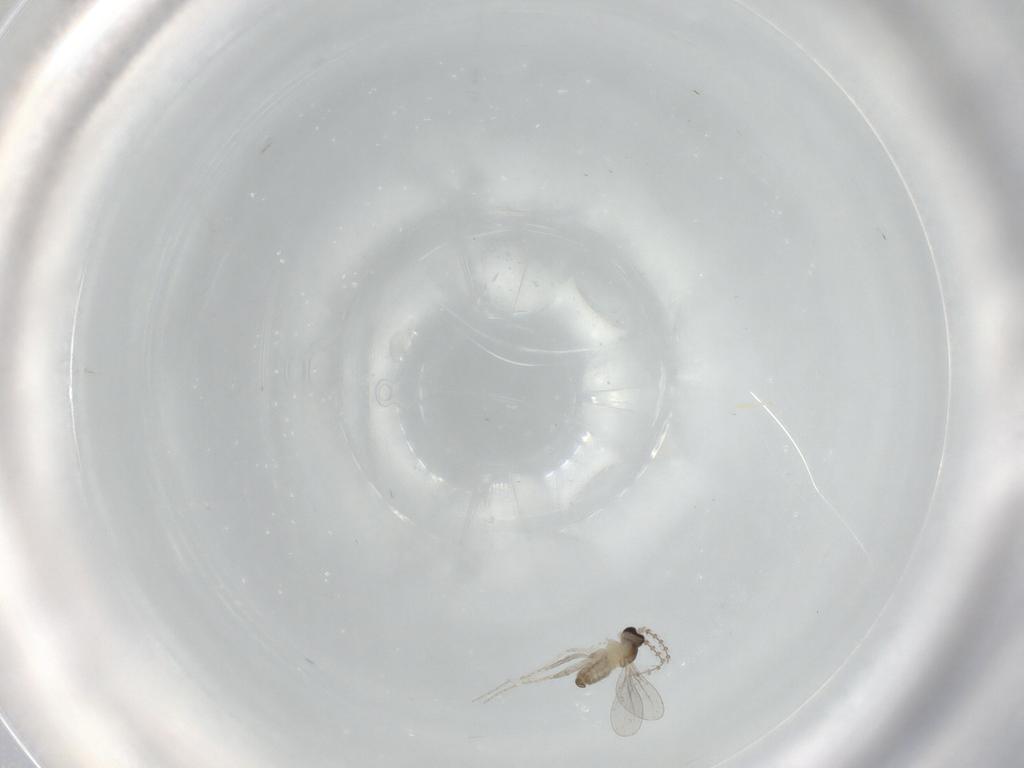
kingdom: Animalia
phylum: Arthropoda
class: Insecta
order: Diptera
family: Cecidomyiidae
